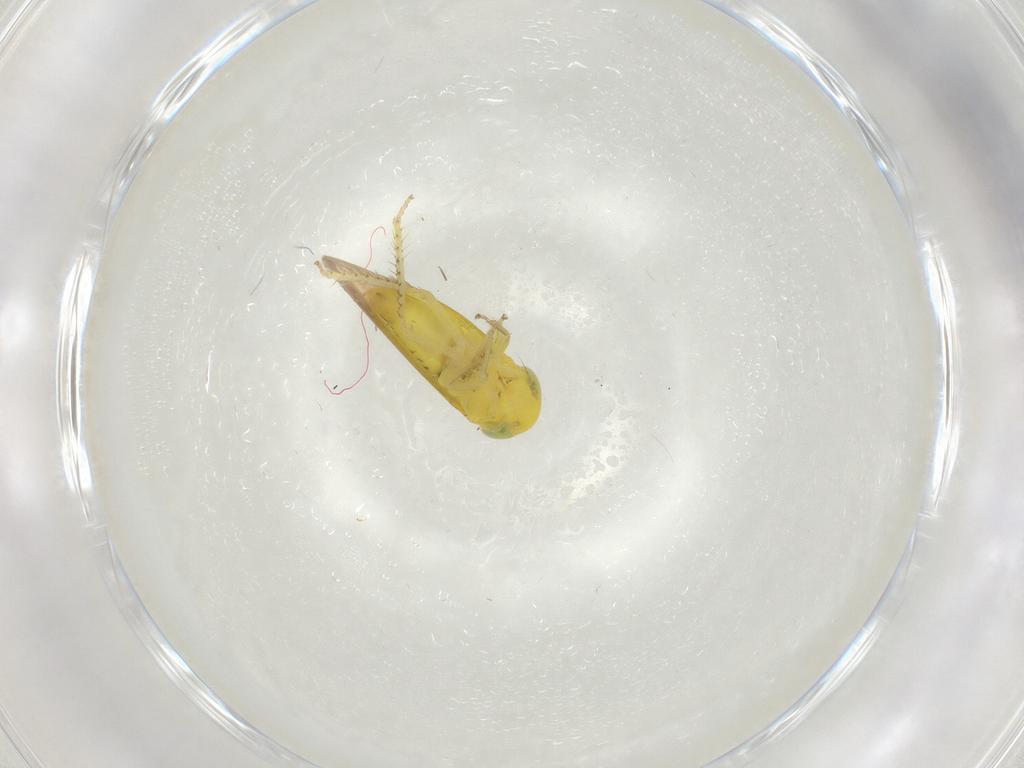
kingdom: Animalia
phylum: Arthropoda
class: Insecta
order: Hemiptera
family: Cicadellidae
